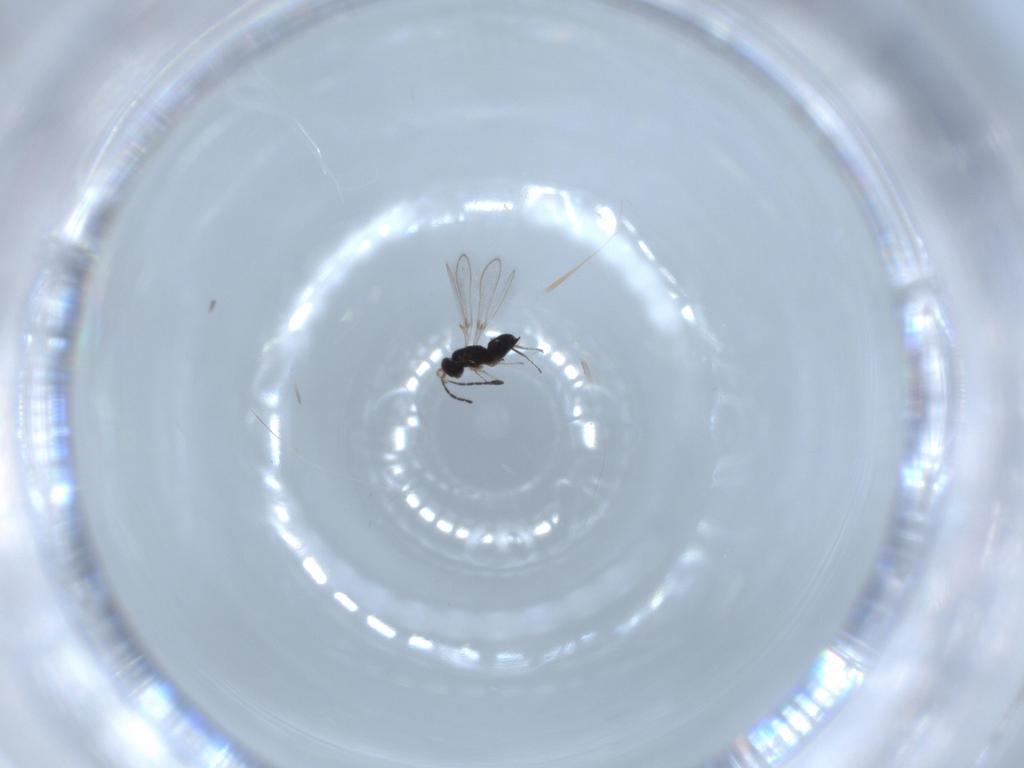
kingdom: Animalia
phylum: Arthropoda
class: Insecta
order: Hymenoptera
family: Mymaridae
